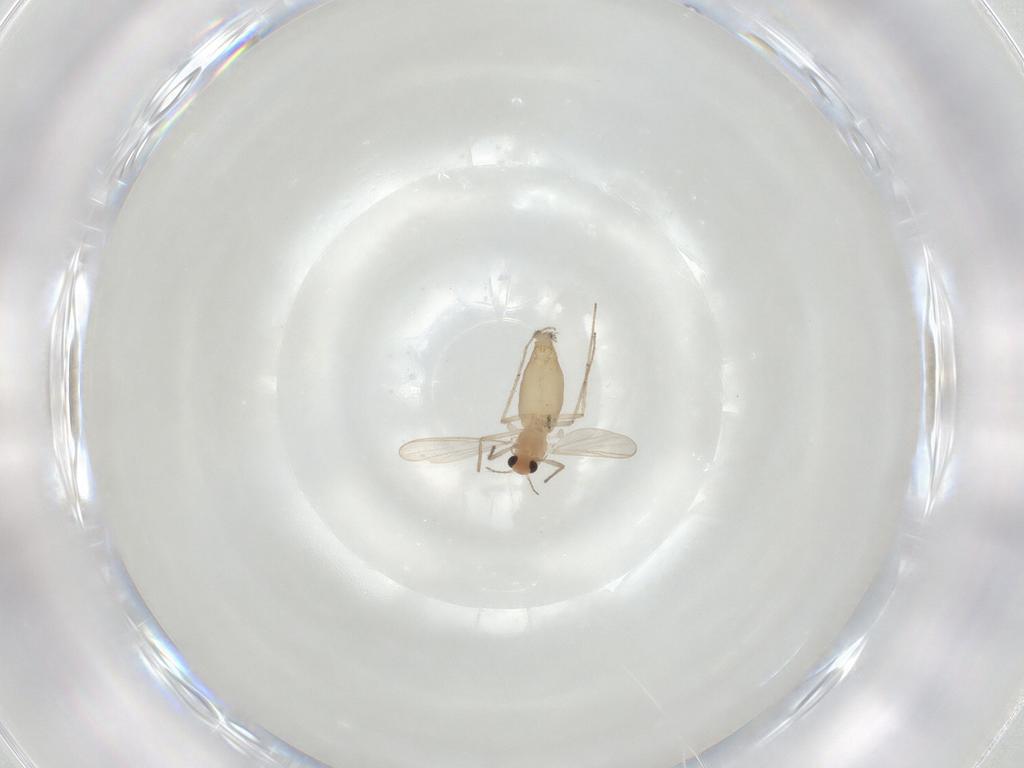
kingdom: Animalia
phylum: Arthropoda
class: Insecta
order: Diptera
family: Chironomidae
